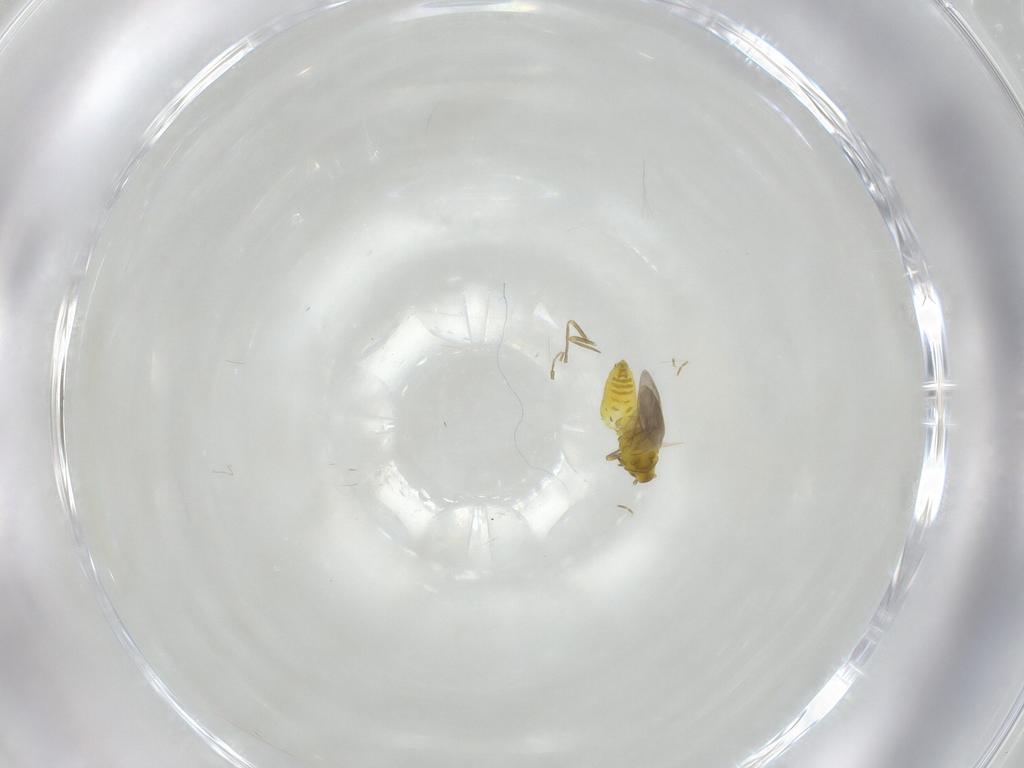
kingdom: Animalia
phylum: Arthropoda
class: Insecta
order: Hemiptera
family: Aleyrodidae
